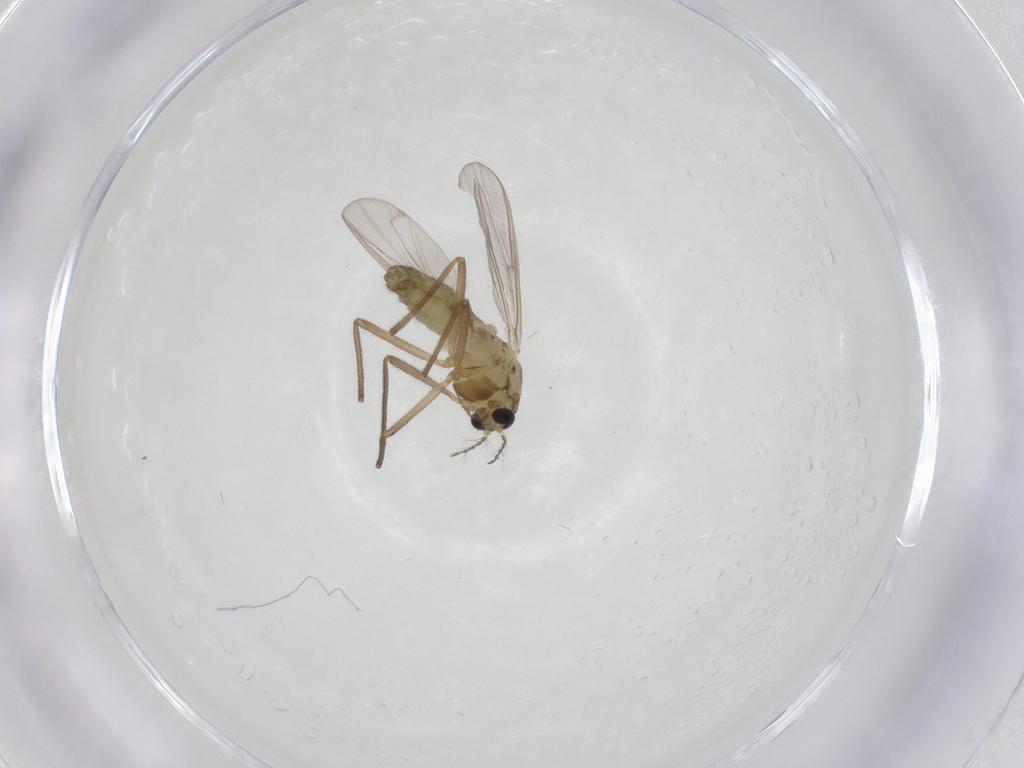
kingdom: Animalia
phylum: Arthropoda
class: Insecta
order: Diptera
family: Chironomidae
